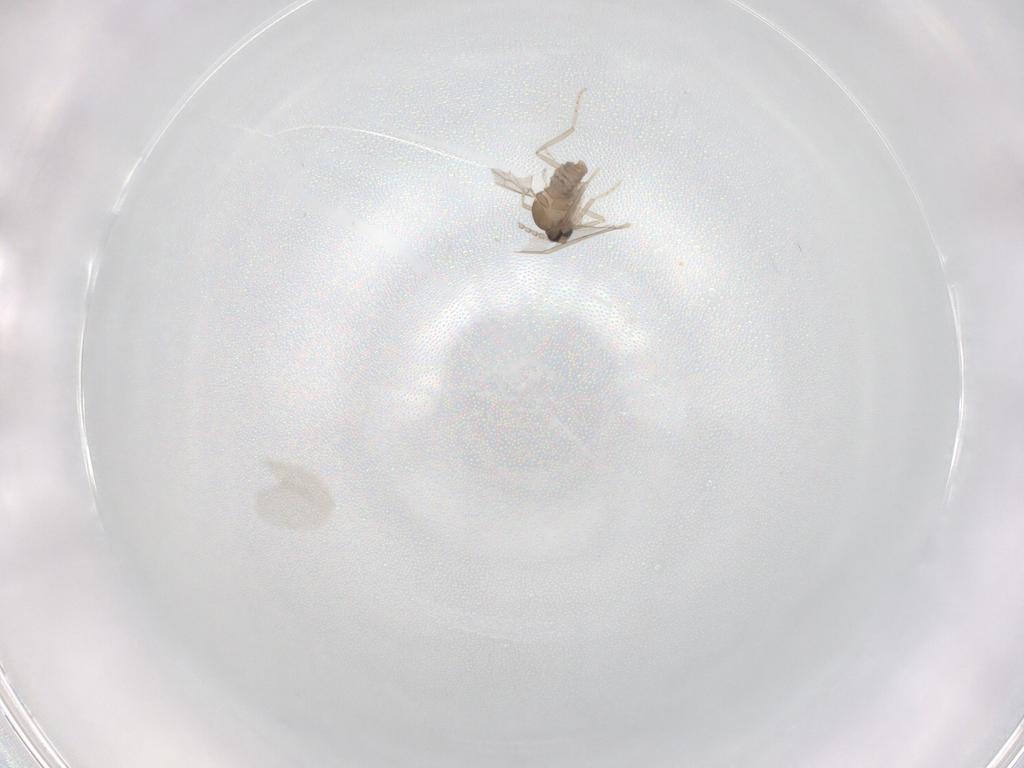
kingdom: Animalia
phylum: Arthropoda
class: Insecta
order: Diptera
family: Cecidomyiidae
